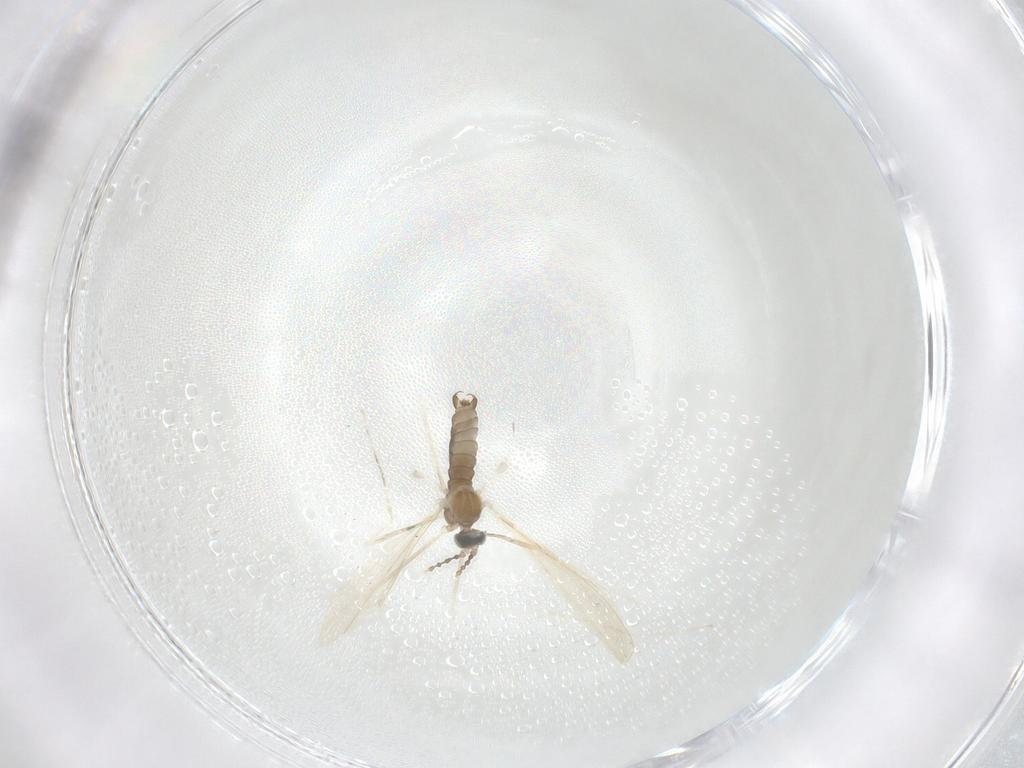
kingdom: Animalia
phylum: Arthropoda
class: Insecta
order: Diptera
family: Cecidomyiidae
